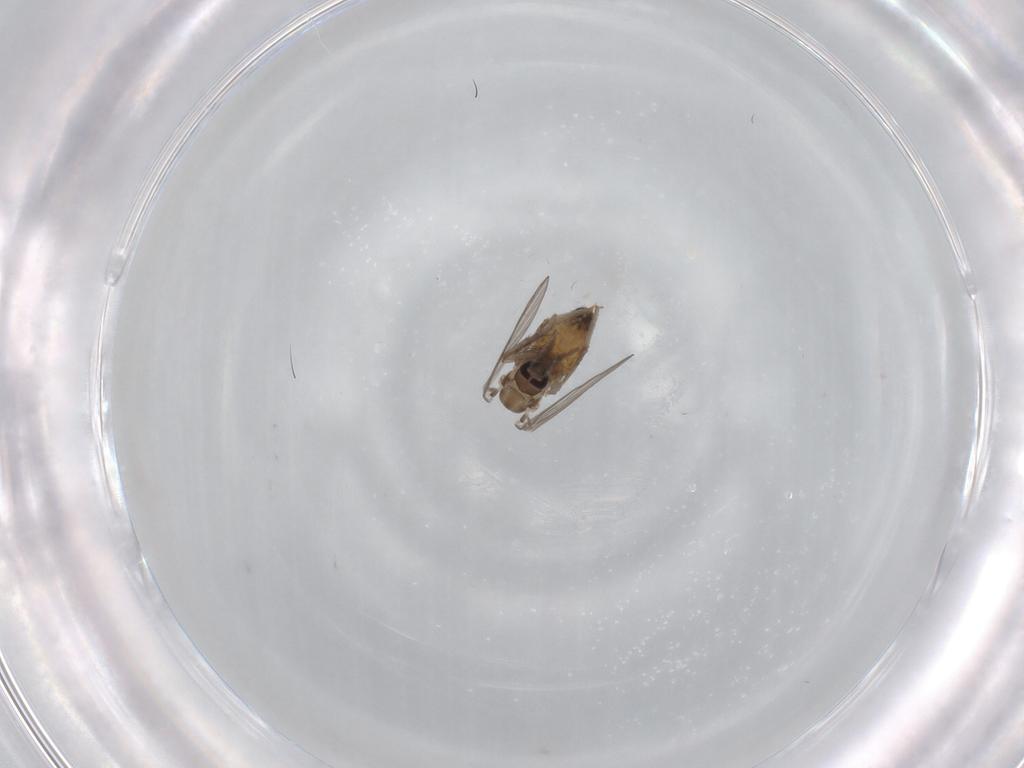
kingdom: Animalia
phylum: Arthropoda
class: Insecta
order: Diptera
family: Psychodidae
